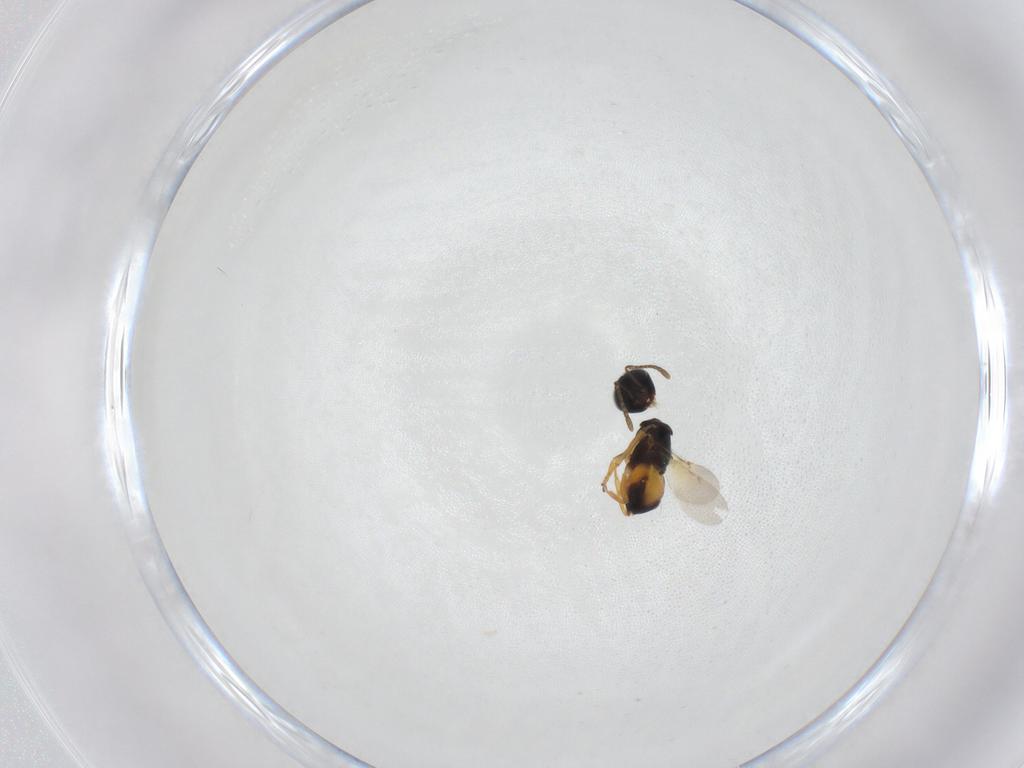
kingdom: Animalia
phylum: Arthropoda
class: Insecta
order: Hymenoptera
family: Encyrtidae
